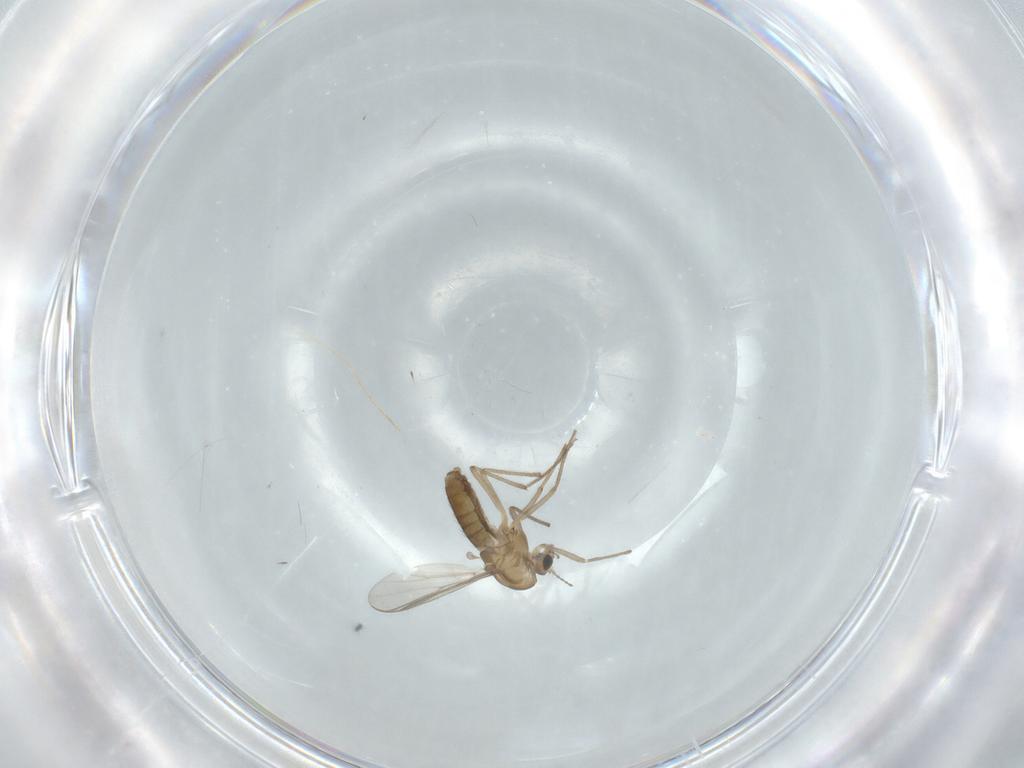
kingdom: Animalia
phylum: Arthropoda
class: Insecta
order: Diptera
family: Chironomidae
